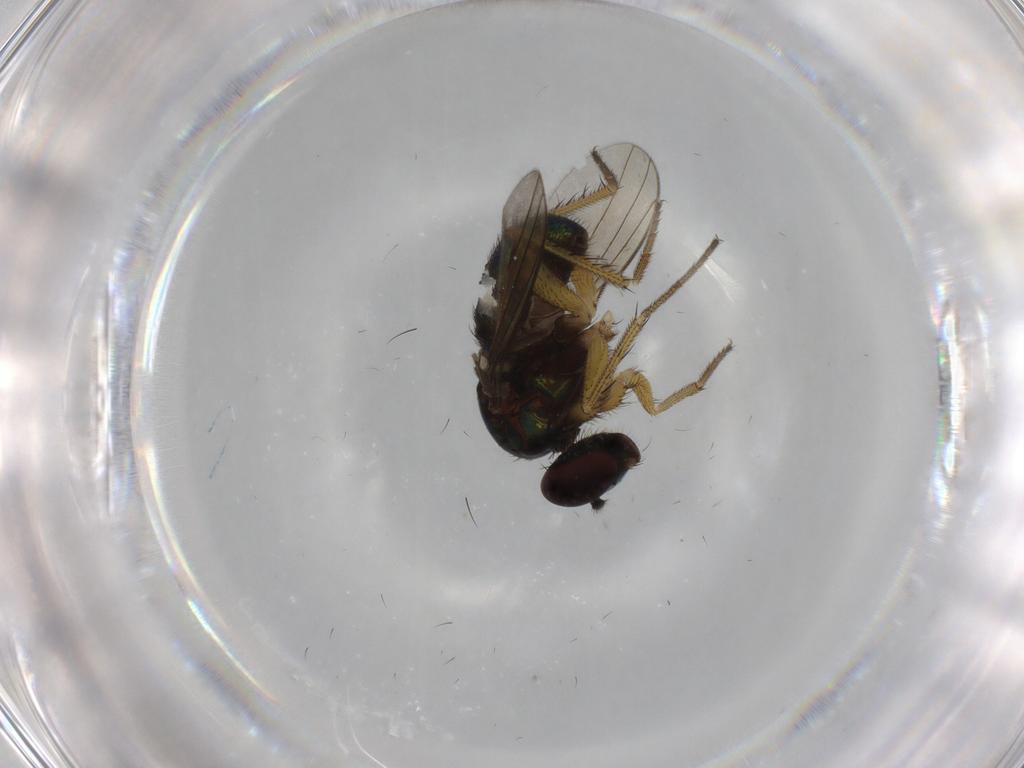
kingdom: Animalia
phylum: Arthropoda
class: Insecta
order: Diptera
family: Dolichopodidae
